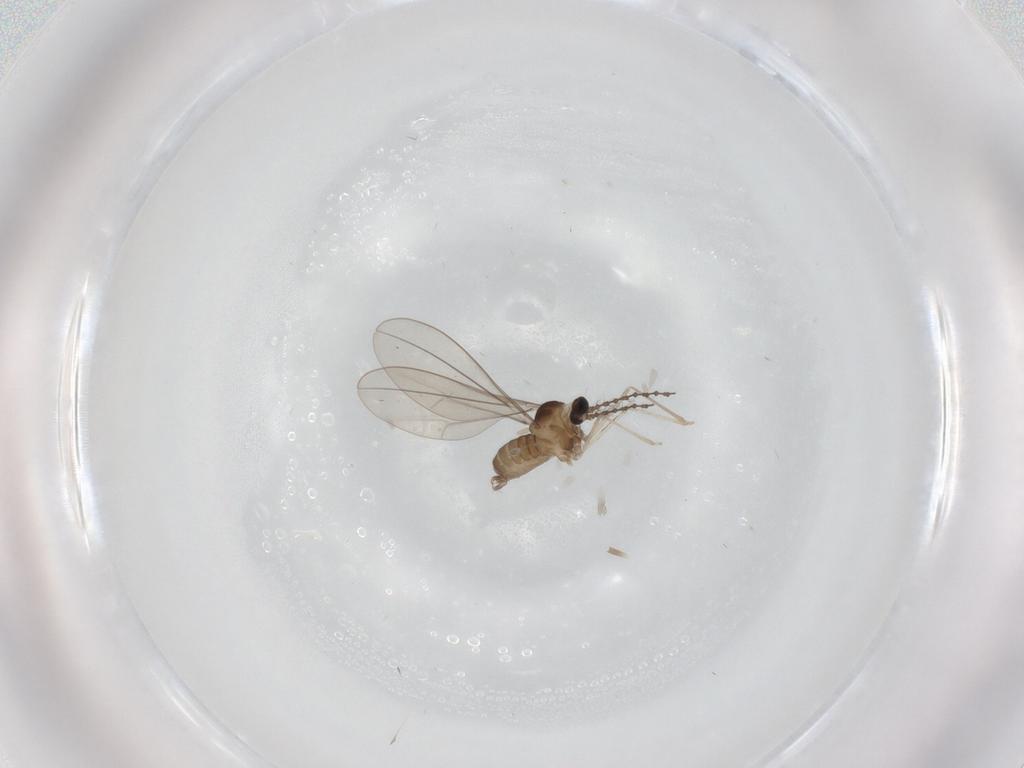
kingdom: Animalia
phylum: Arthropoda
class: Insecta
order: Diptera
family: Cecidomyiidae
